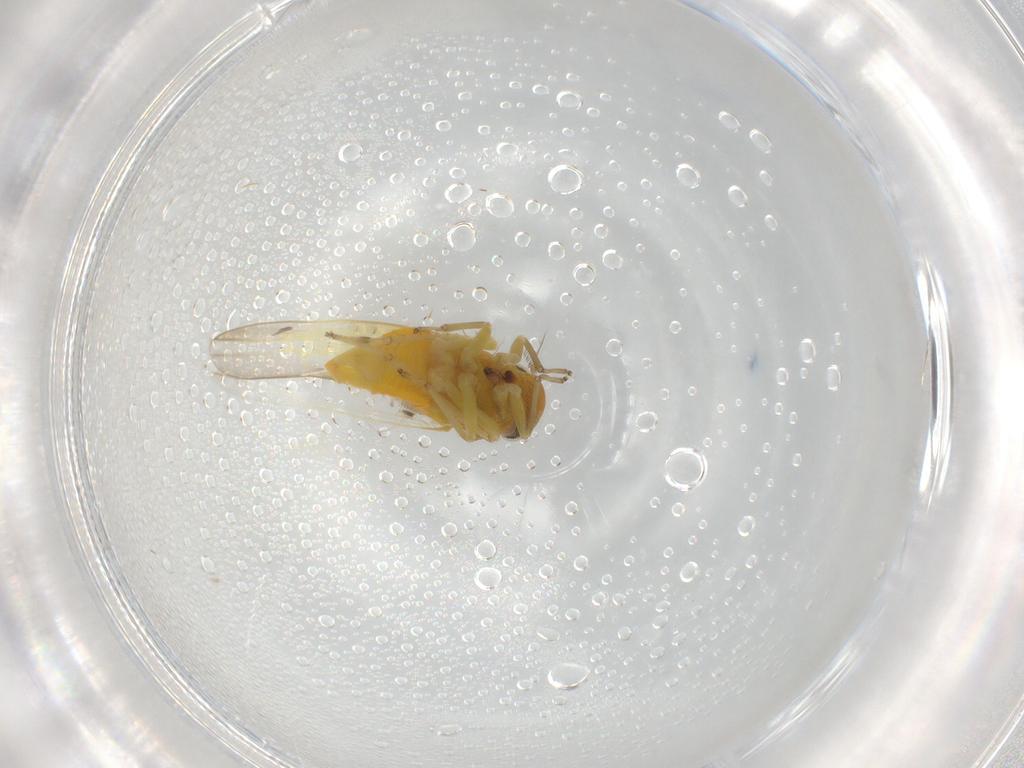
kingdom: Animalia
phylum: Arthropoda
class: Insecta
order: Hemiptera
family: Cicadellidae
